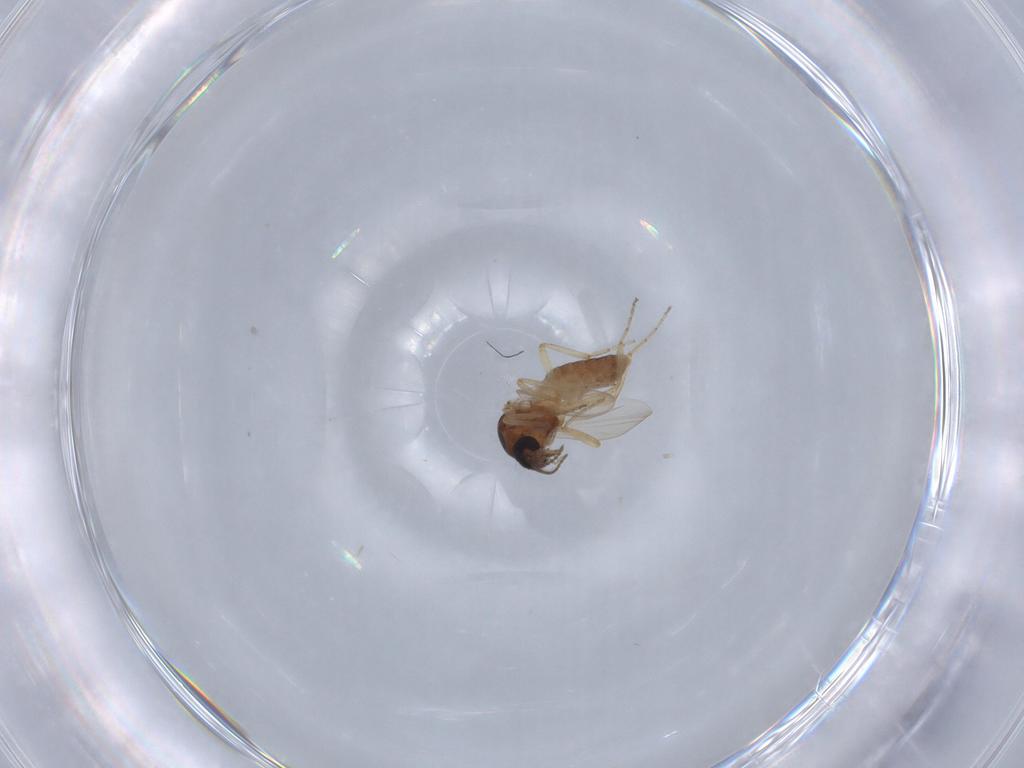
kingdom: Animalia
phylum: Arthropoda
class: Insecta
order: Diptera
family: Ceratopogonidae
